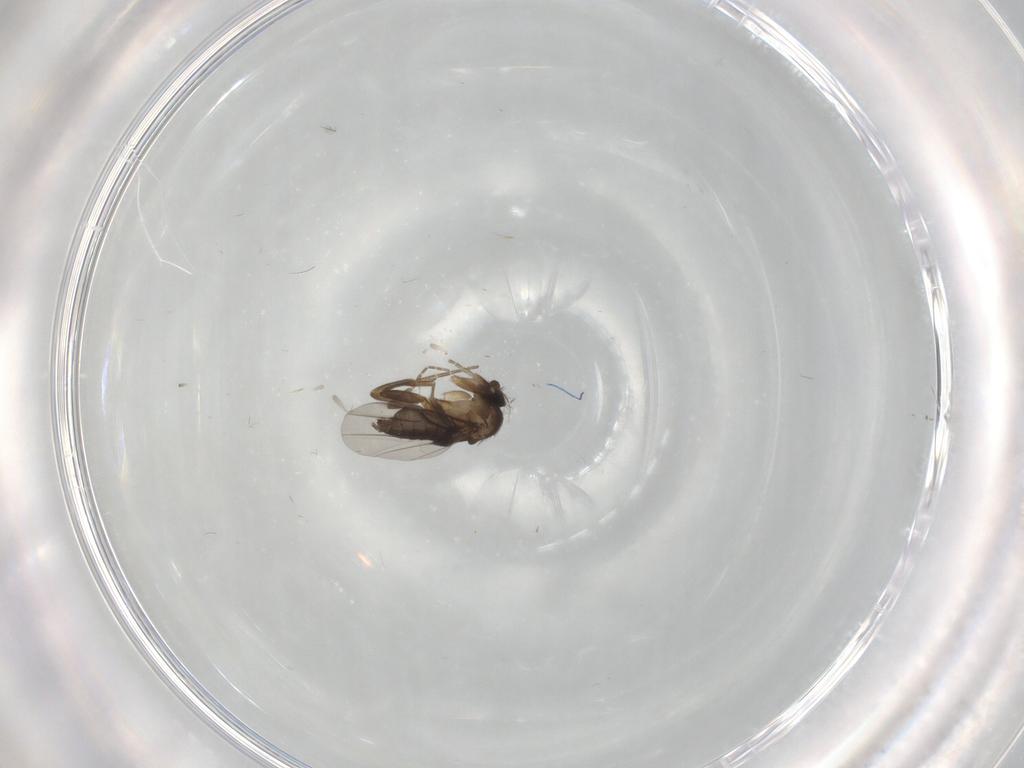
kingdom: Animalia
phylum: Arthropoda
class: Insecta
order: Diptera
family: Phoridae
